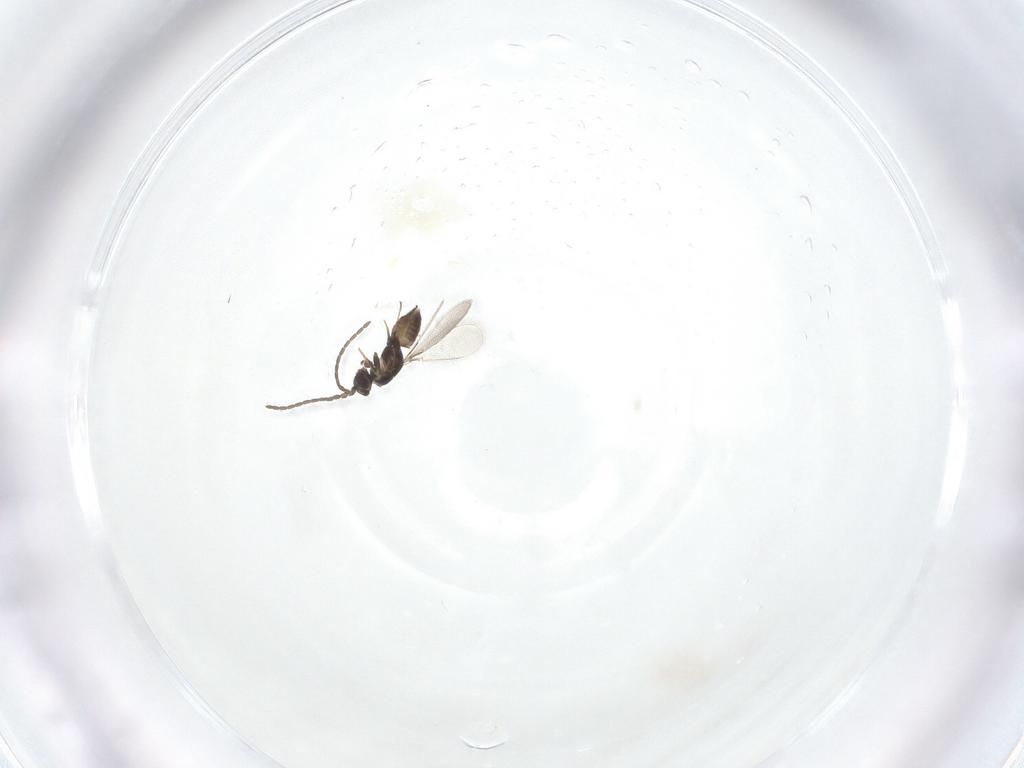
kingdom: Animalia
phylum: Arthropoda
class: Insecta
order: Hymenoptera
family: Mymaridae
